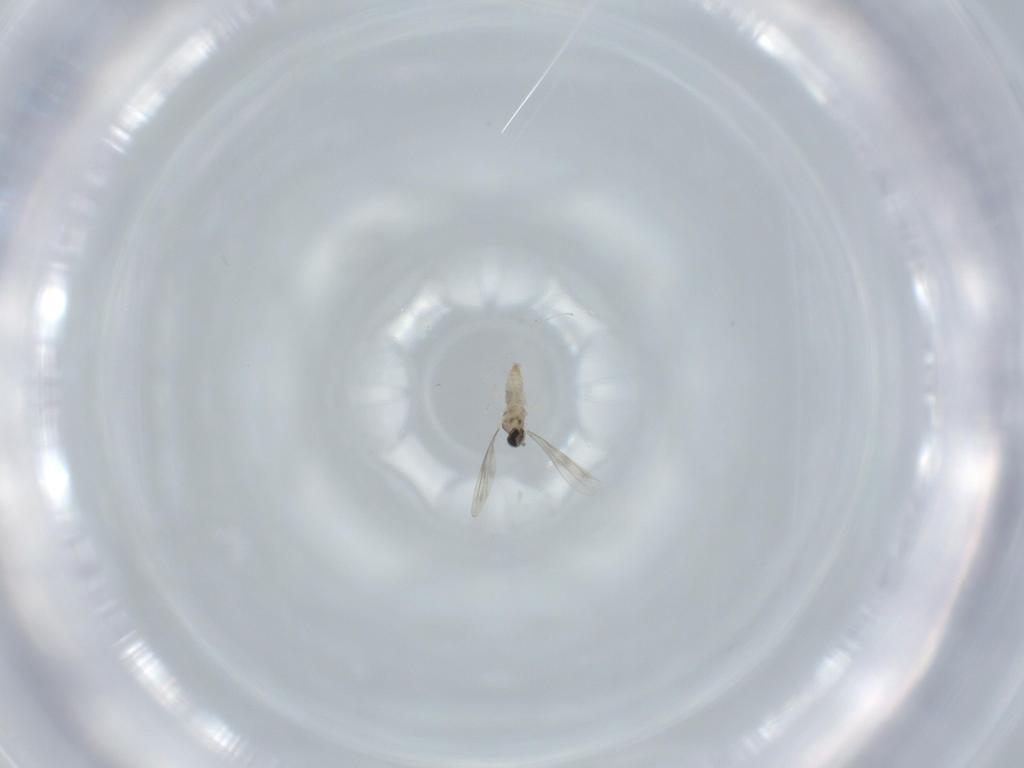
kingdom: Animalia
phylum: Arthropoda
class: Insecta
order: Diptera
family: Cecidomyiidae
